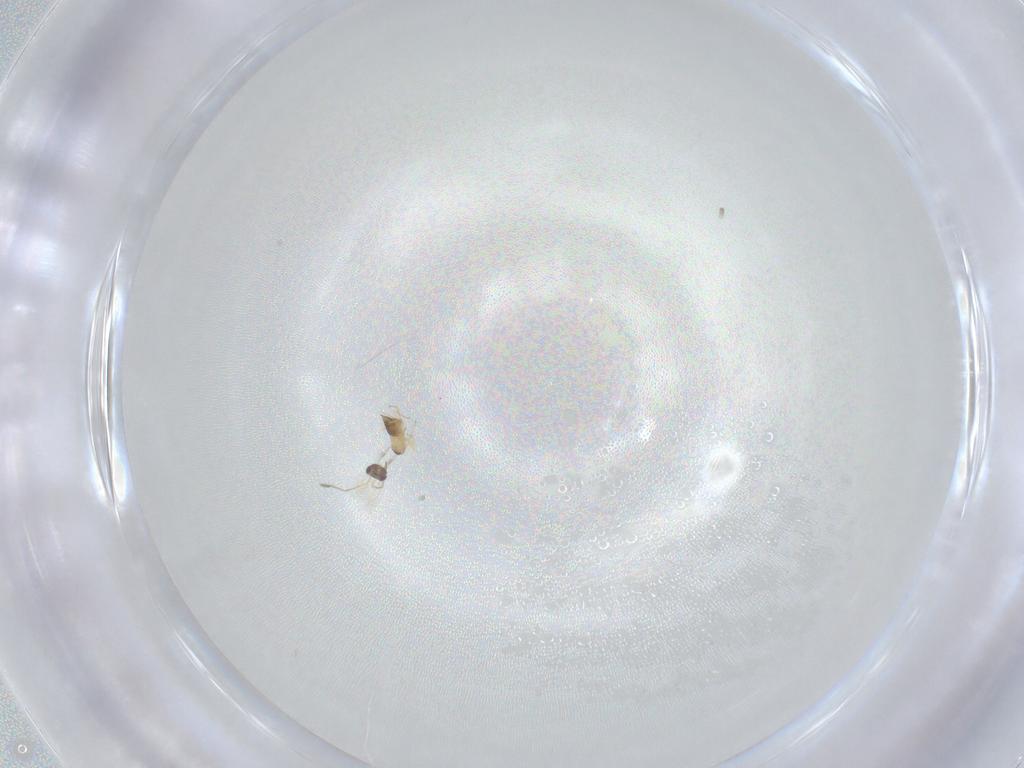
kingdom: Animalia
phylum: Arthropoda
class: Insecta
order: Hymenoptera
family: Mymaridae
